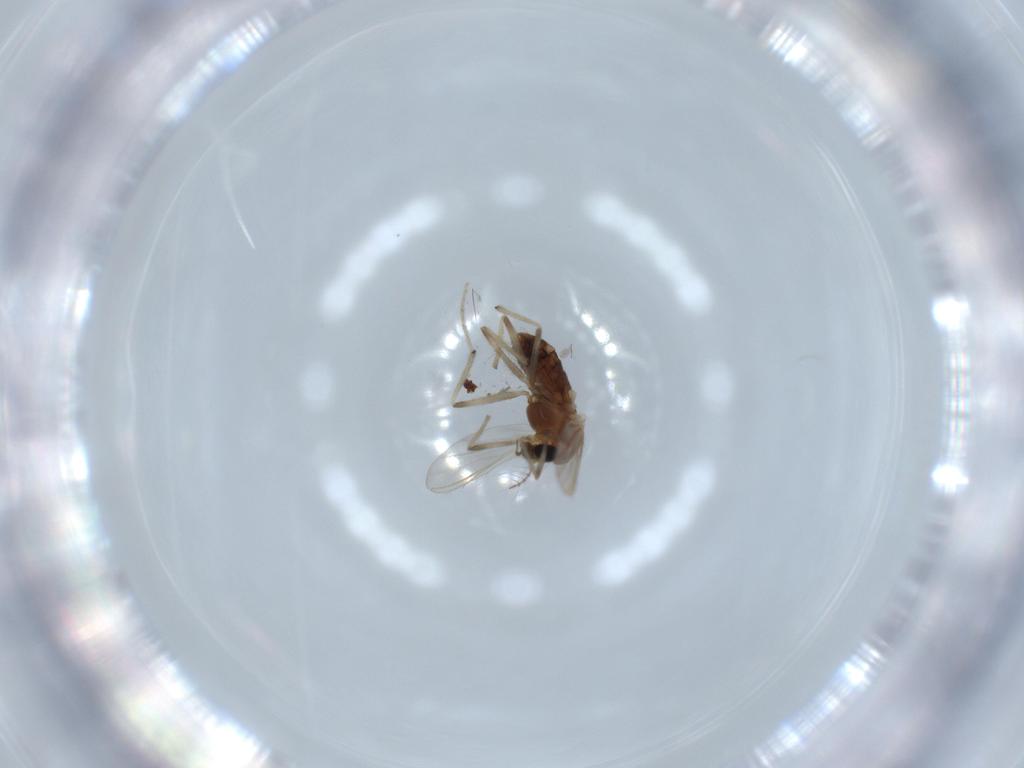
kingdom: Animalia
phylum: Arthropoda
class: Insecta
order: Diptera
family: Chironomidae
